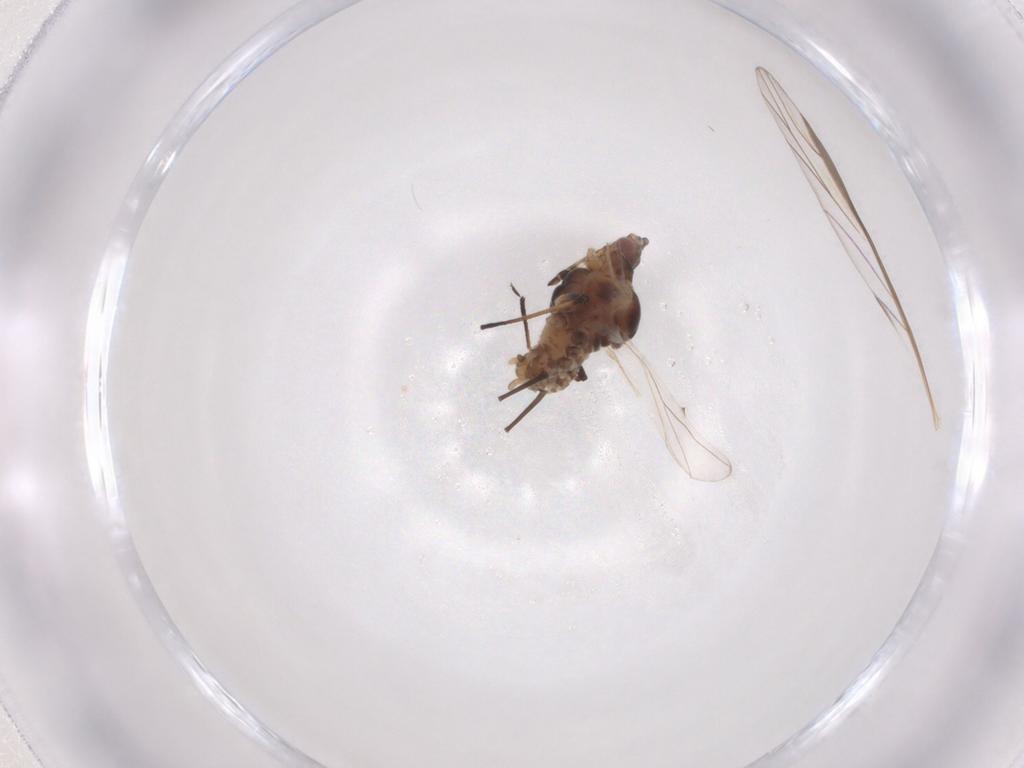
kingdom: Animalia
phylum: Arthropoda
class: Insecta
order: Hemiptera
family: Aphididae
